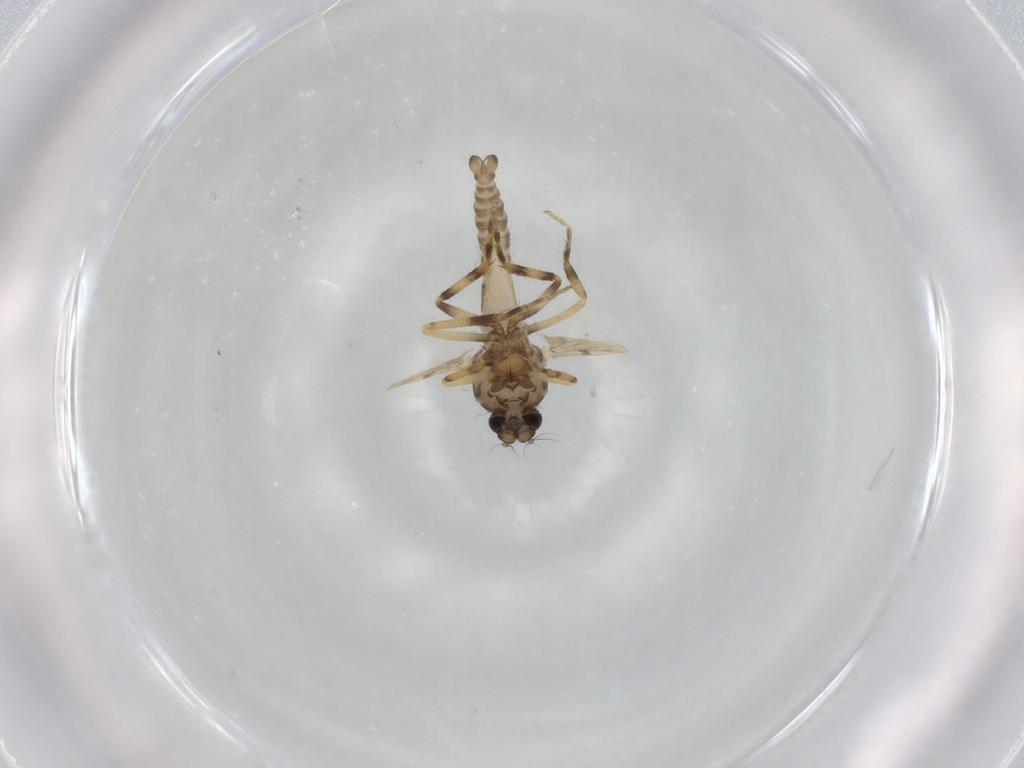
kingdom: Animalia
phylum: Arthropoda
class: Insecta
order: Diptera
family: Ceratopogonidae
